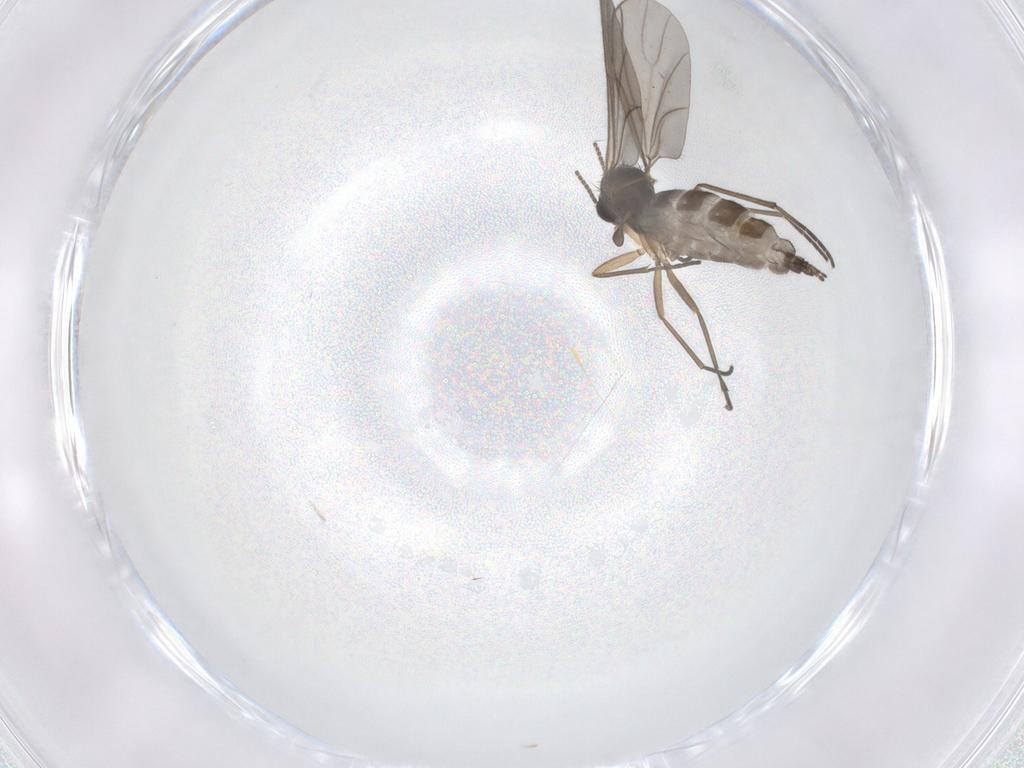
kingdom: Animalia
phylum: Arthropoda
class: Insecta
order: Diptera
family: Sciaridae
